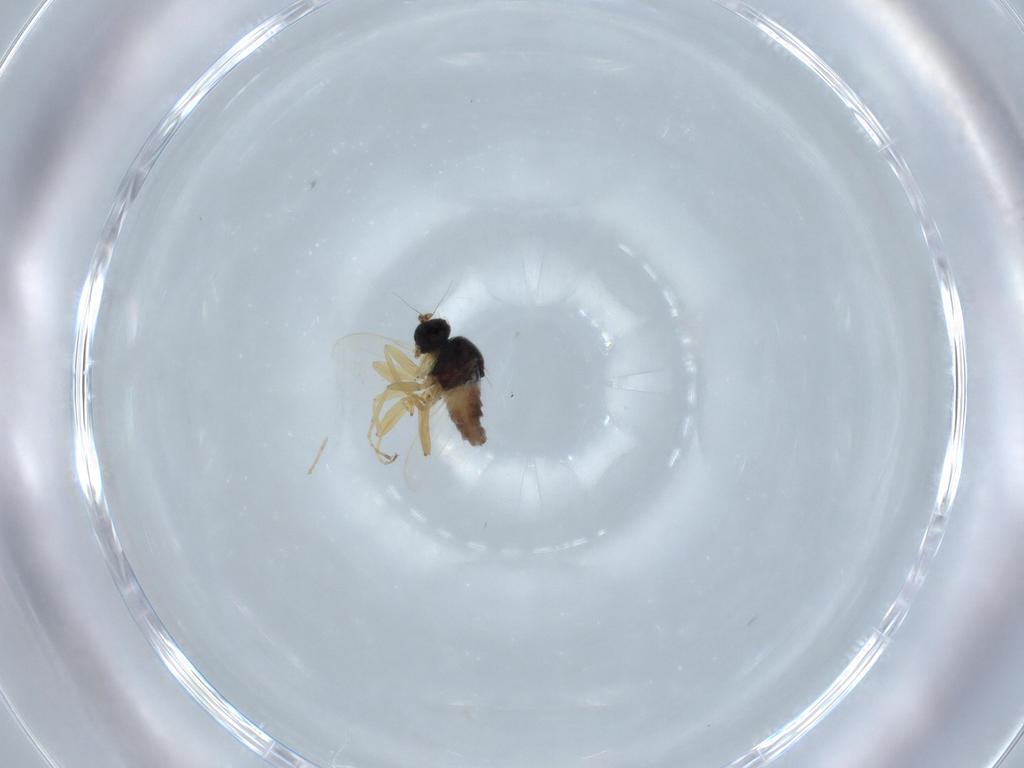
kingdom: Animalia
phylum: Arthropoda
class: Insecta
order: Diptera
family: Hybotidae
